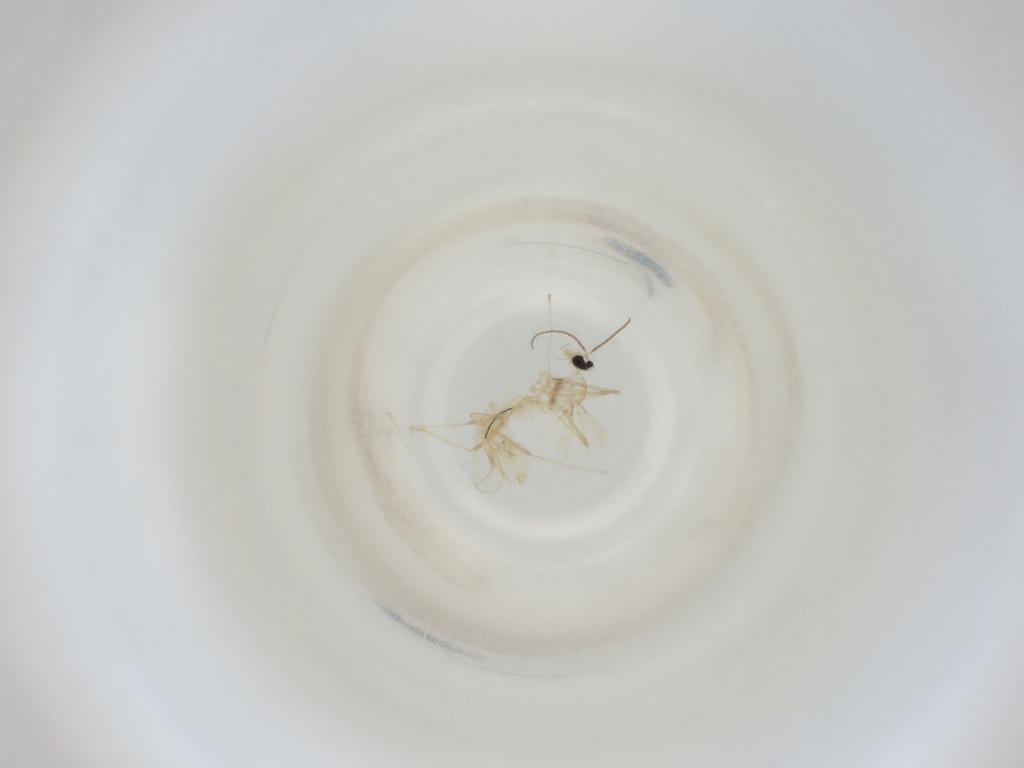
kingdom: Animalia
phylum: Arthropoda
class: Insecta
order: Diptera
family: Cecidomyiidae
